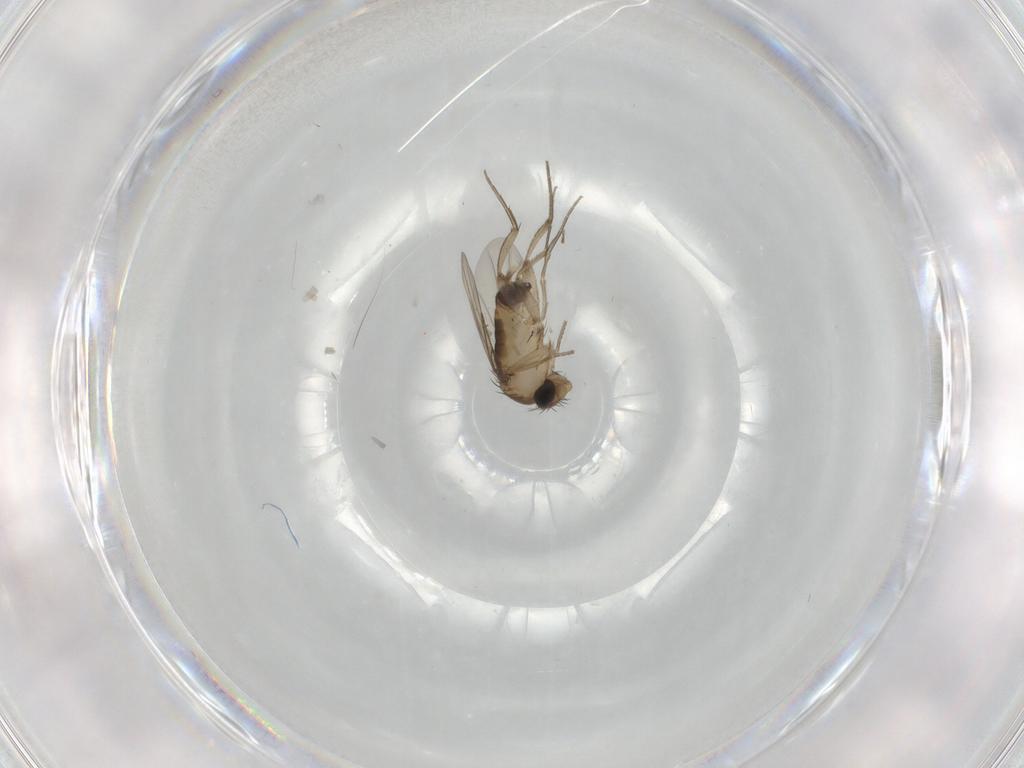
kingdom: Animalia
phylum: Arthropoda
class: Insecta
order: Diptera
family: Phoridae
